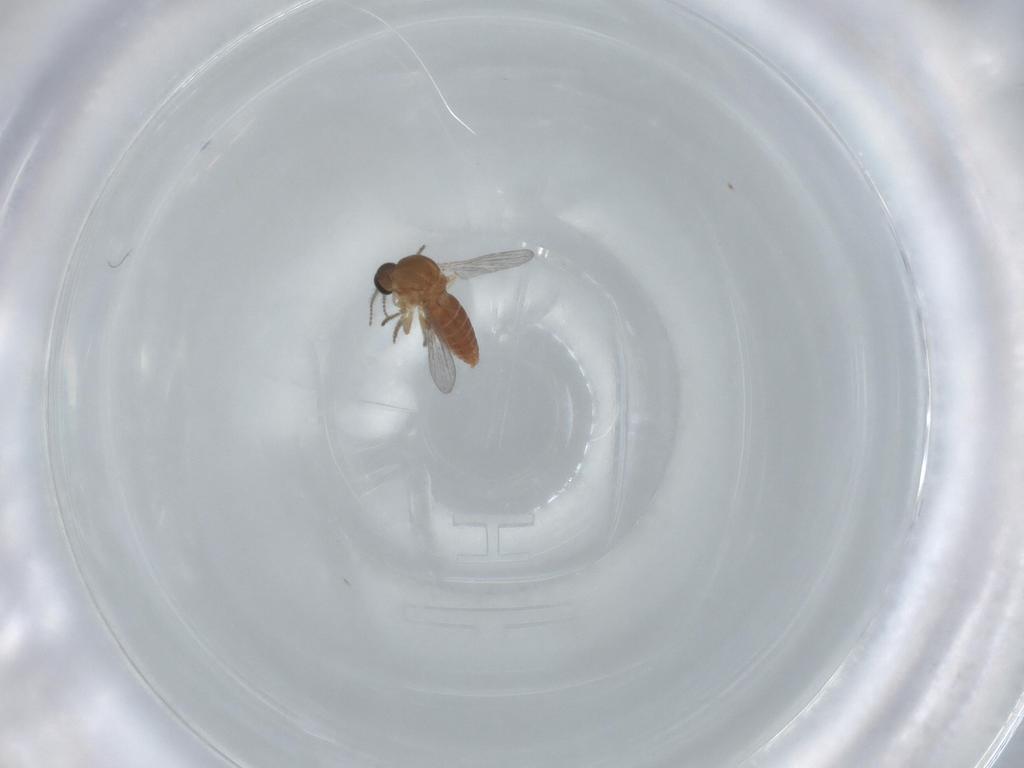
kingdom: Animalia
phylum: Arthropoda
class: Insecta
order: Diptera
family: Ceratopogonidae
